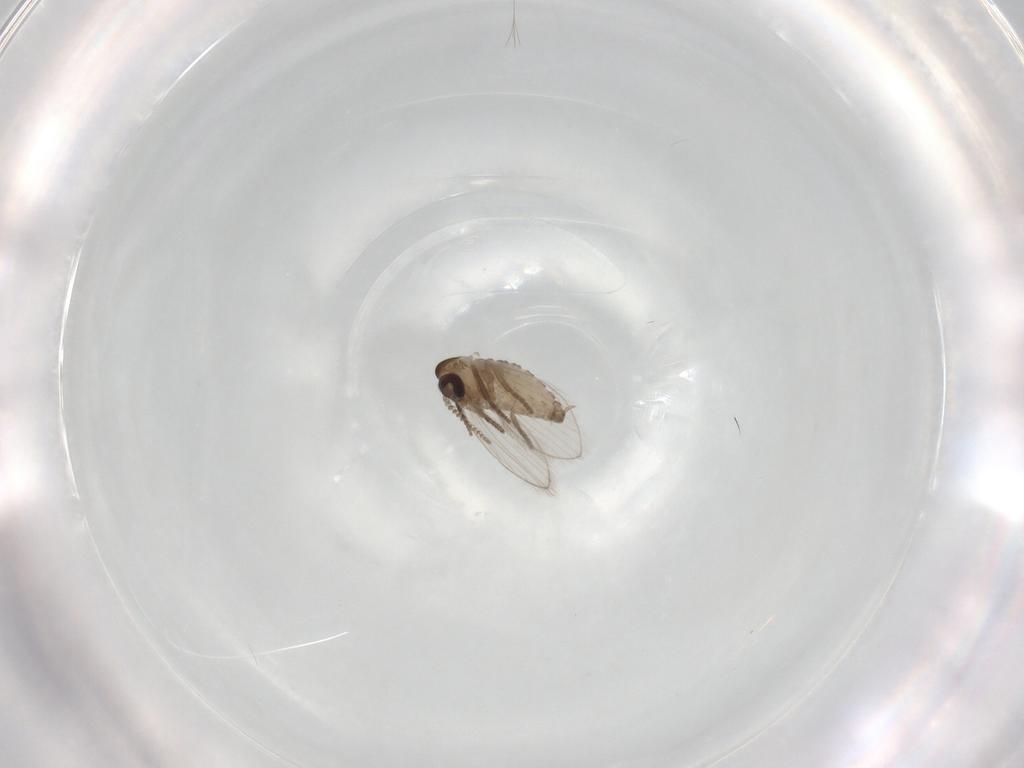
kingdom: Animalia
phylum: Arthropoda
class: Insecta
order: Diptera
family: Psychodidae
